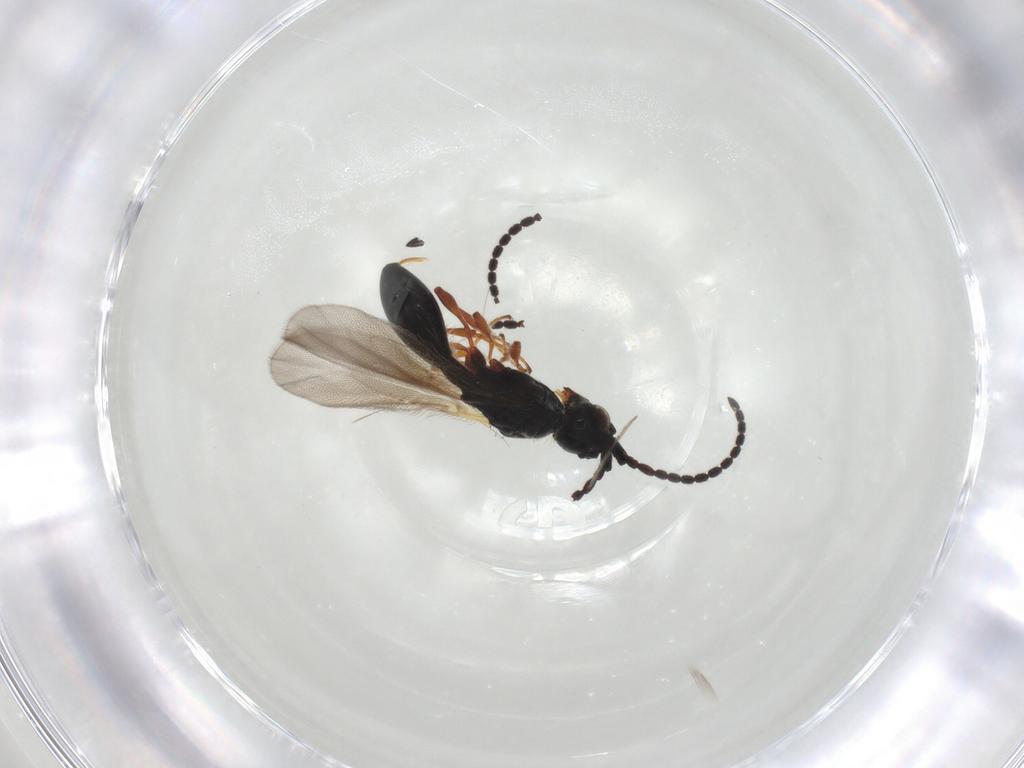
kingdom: Animalia
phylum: Arthropoda
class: Insecta
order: Hymenoptera
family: Diapriidae
